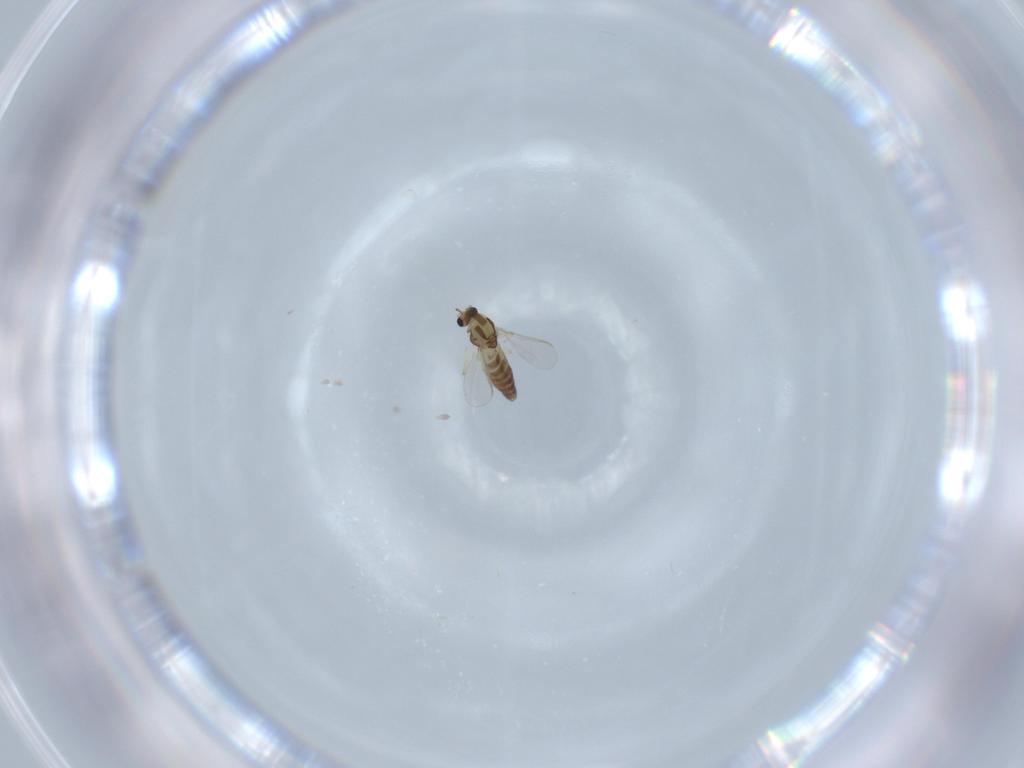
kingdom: Animalia
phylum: Arthropoda
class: Insecta
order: Diptera
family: Chironomidae
